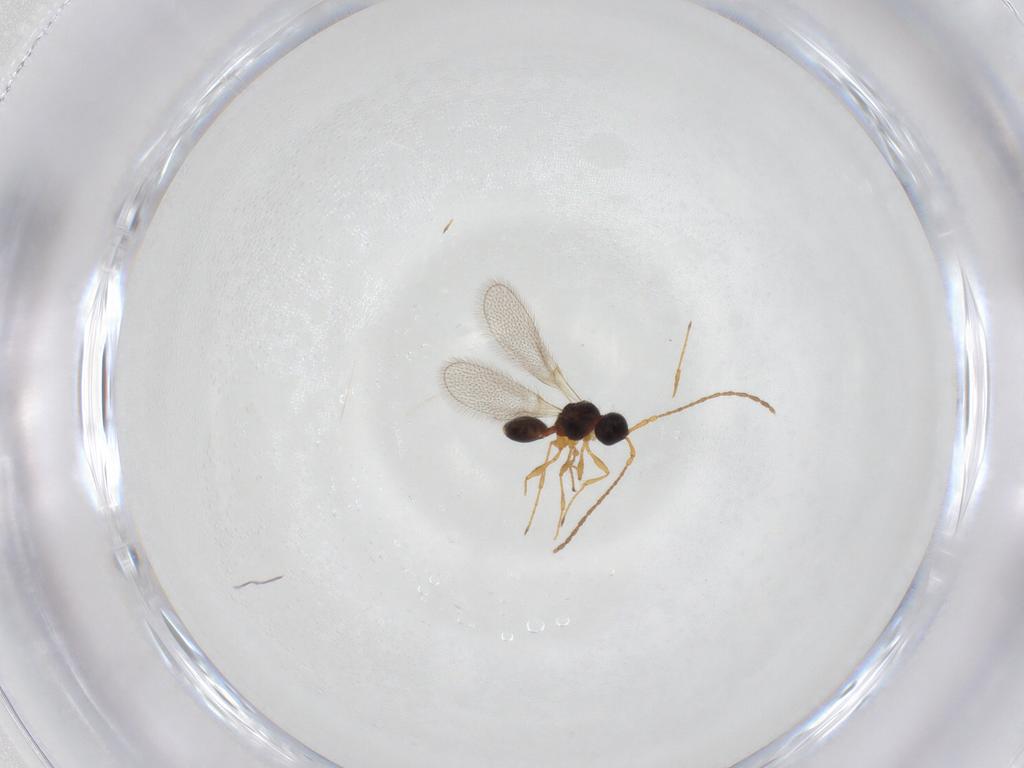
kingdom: Animalia
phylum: Arthropoda
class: Insecta
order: Hymenoptera
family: Diapriidae
